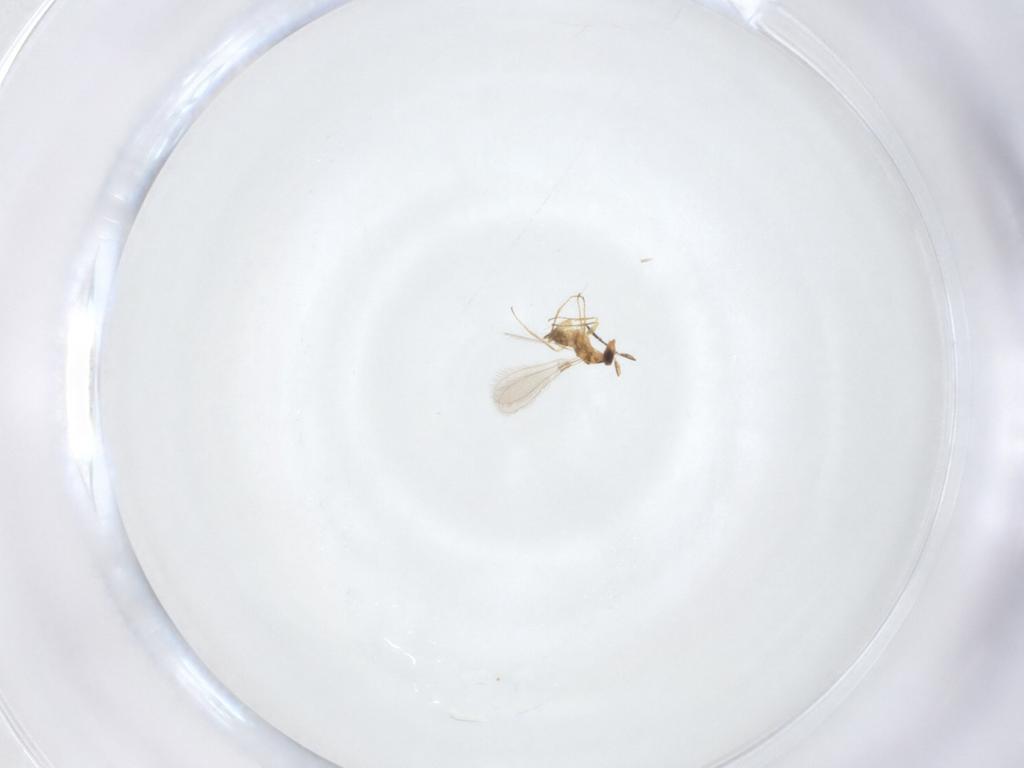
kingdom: Animalia
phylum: Arthropoda
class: Insecta
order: Hymenoptera
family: Mymaridae
